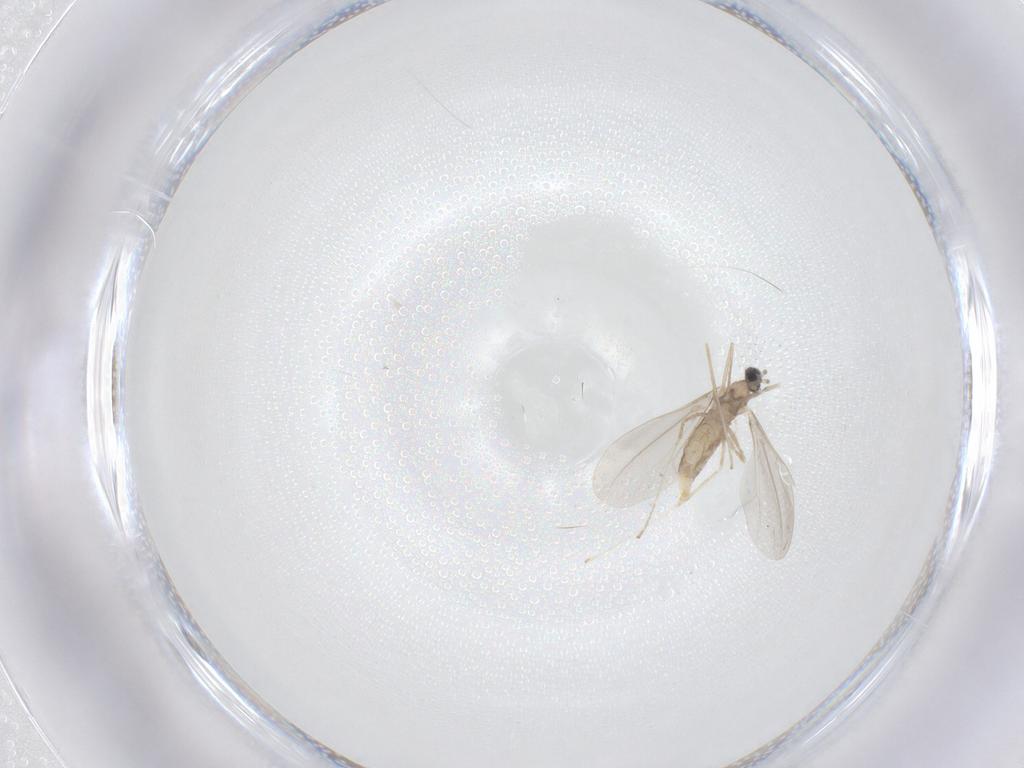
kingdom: Animalia
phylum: Arthropoda
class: Insecta
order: Diptera
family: Cecidomyiidae
